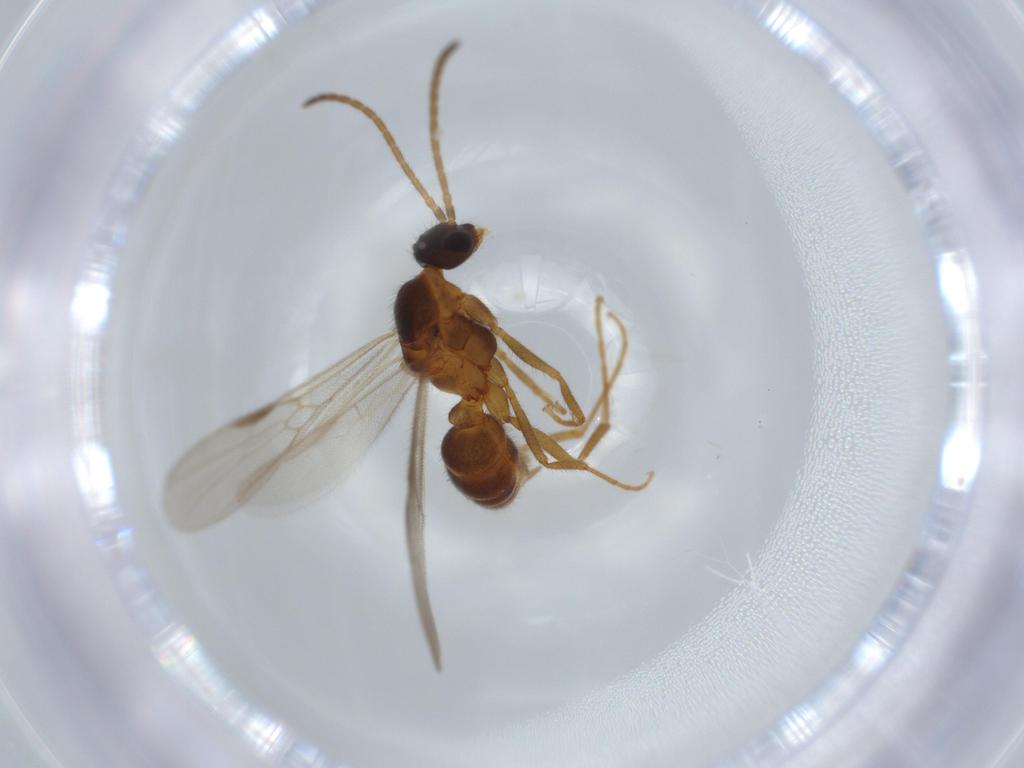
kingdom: Animalia
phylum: Arthropoda
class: Insecta
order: Hymenoptera
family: Formicidae
